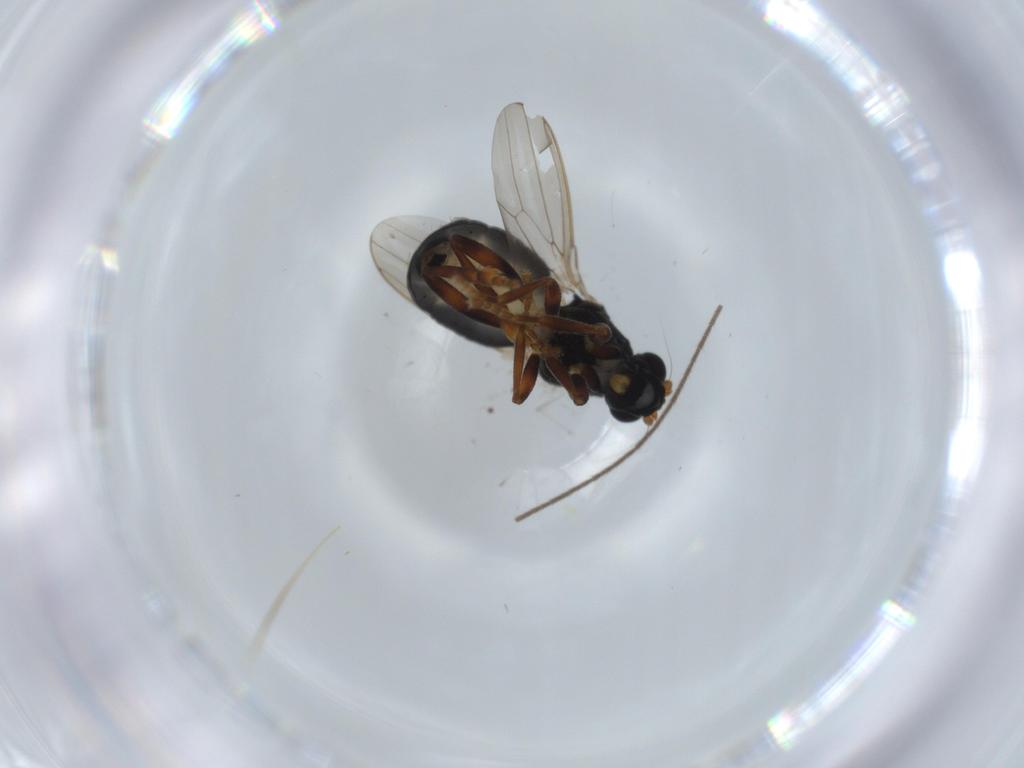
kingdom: Animalia
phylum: Arthropoda
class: Insecta
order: Diptera
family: Sphaeroceridae
